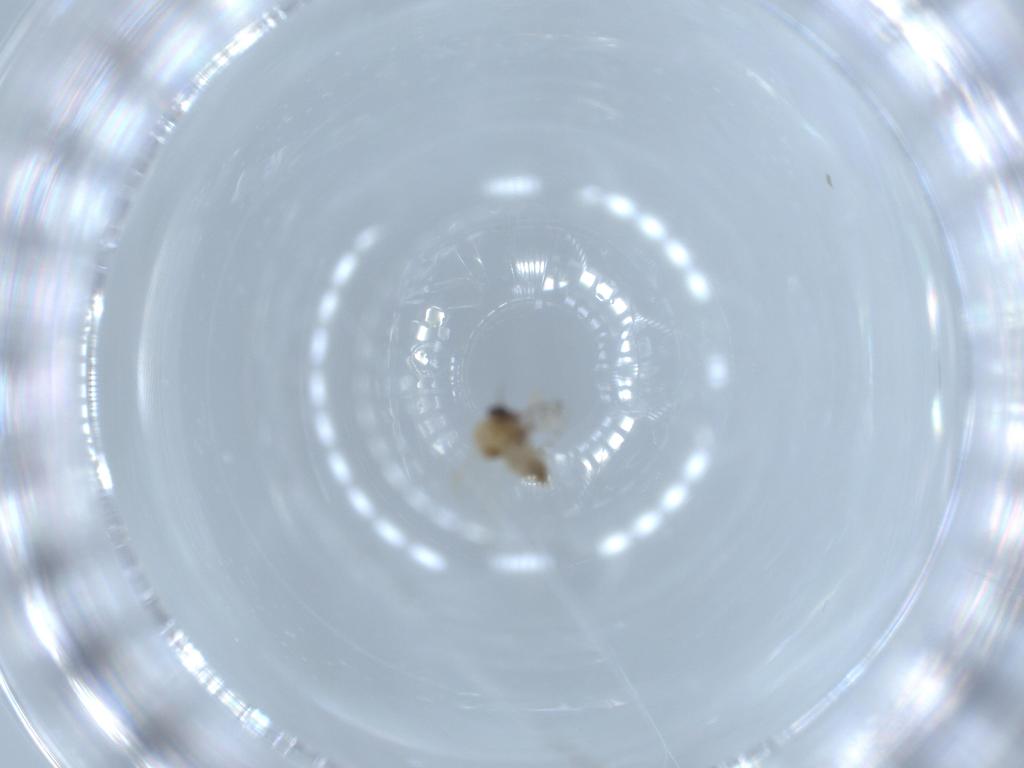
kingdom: Animalia
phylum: Arthropoda
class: Insecta
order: Diptera
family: Ceratopogonidae
